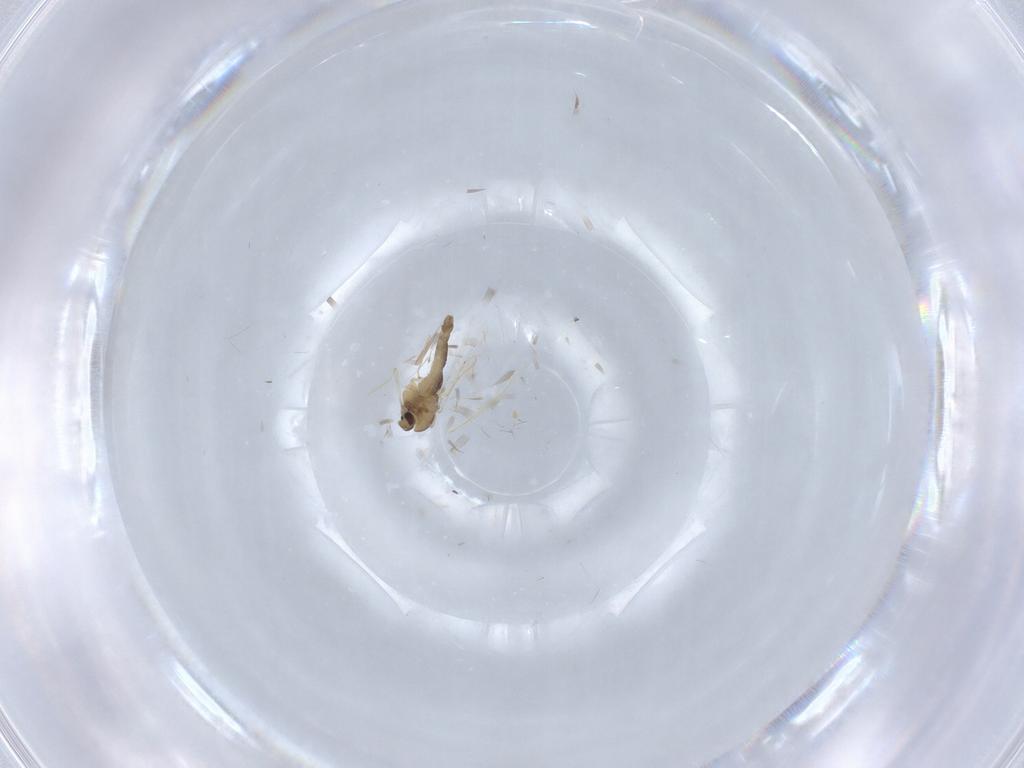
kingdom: Animalia
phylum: Arthropoda
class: Insecta
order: Diptera
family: Chironomidae
